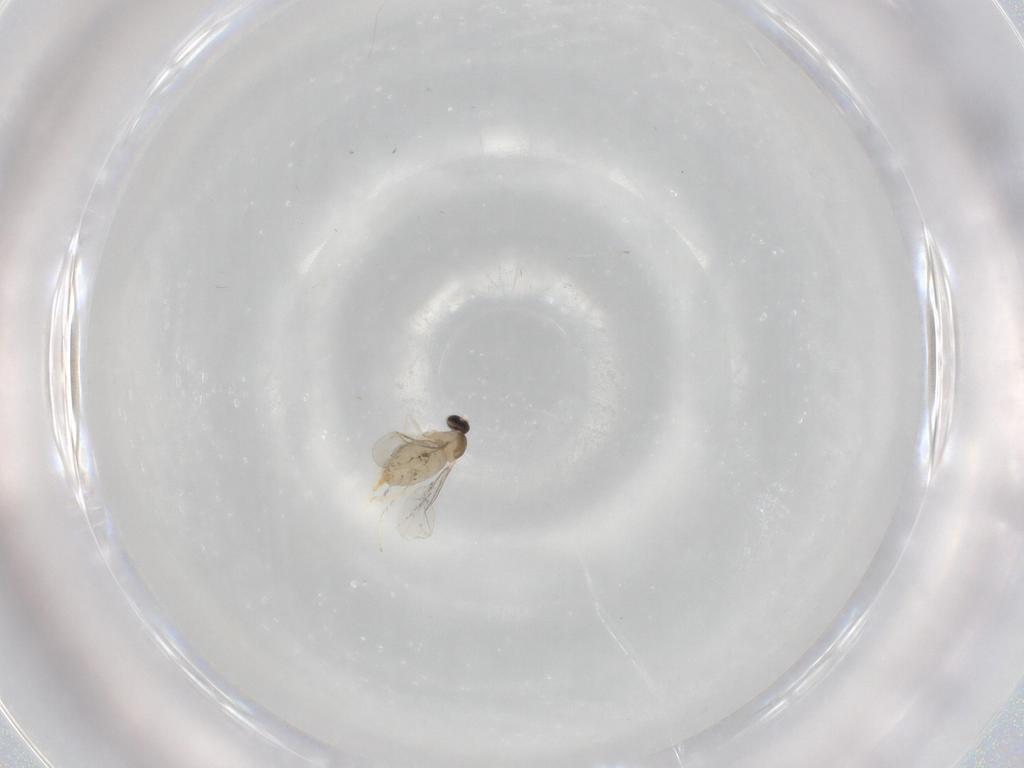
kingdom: Animalia
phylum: Arthropoda
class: Insecta
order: Diptera
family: Cecidomyiidae
